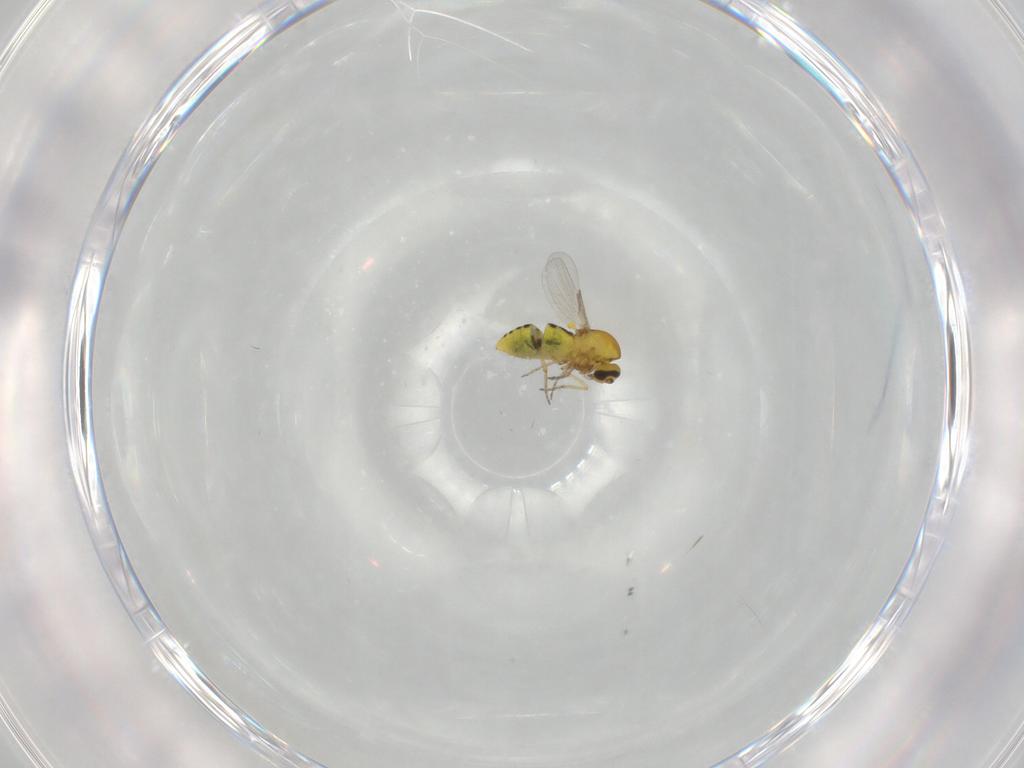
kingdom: Animalia
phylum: Arthropoda
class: Insecta
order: Diptera
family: Ceratopogonidae
